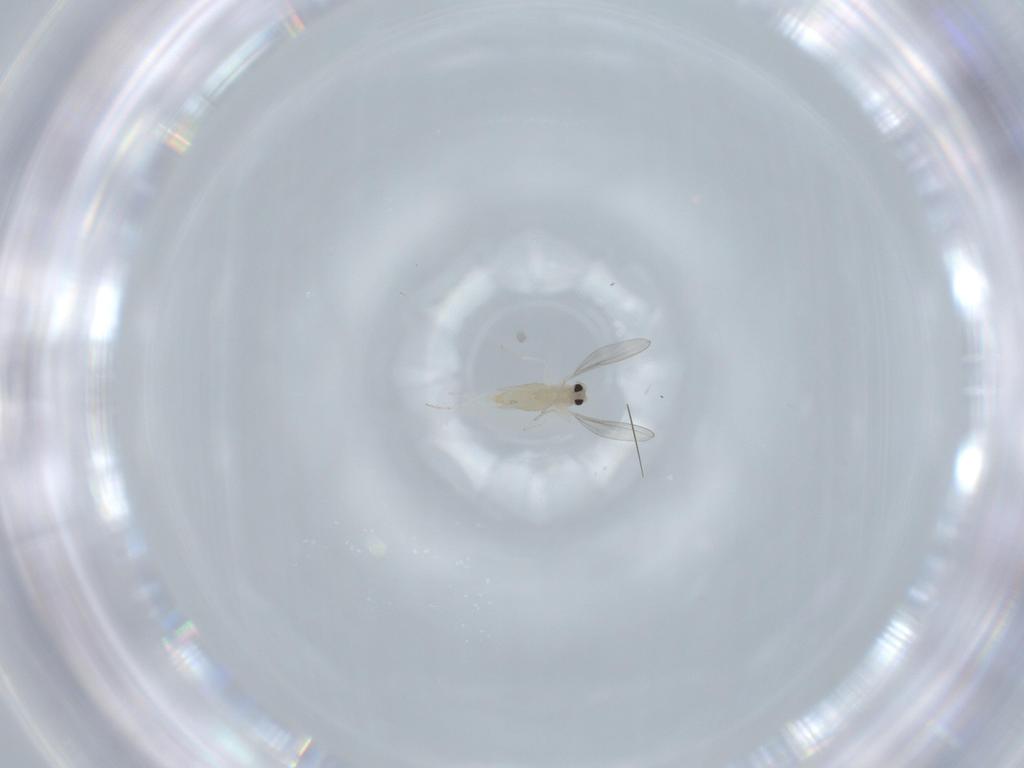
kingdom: Animalia
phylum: Arthropoda
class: Insecta
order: Diptera
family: Cecidomyiidae
